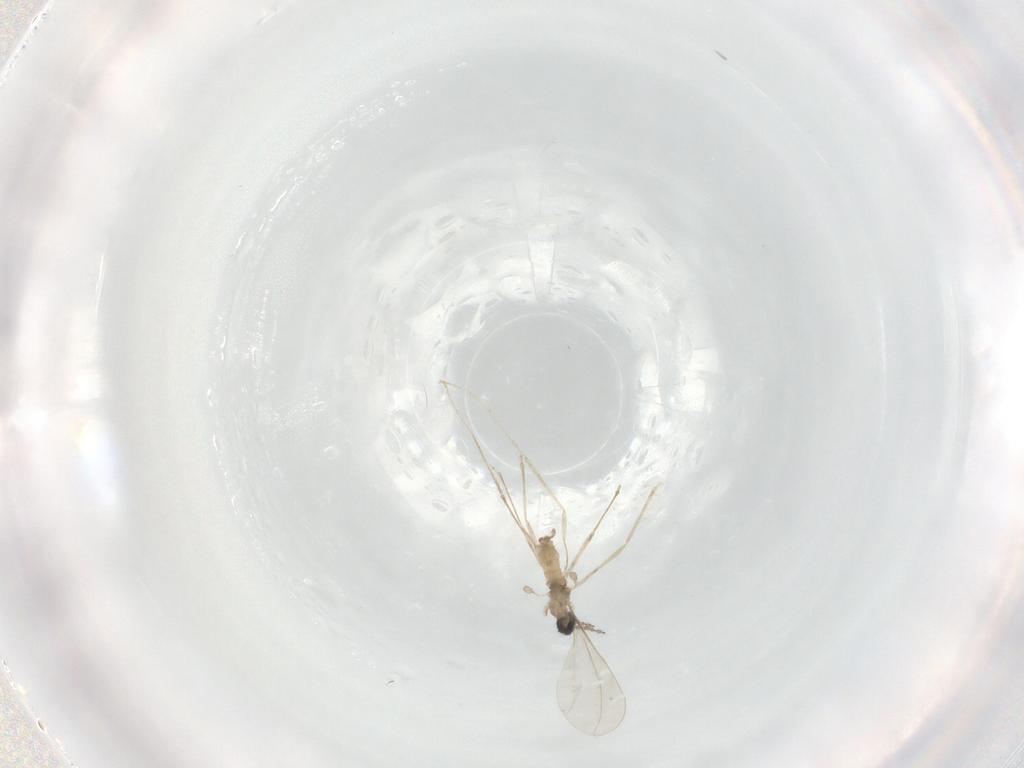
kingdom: Animalia
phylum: Arthropoda
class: Insecta
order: Diptera
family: Cecidomyiidae
